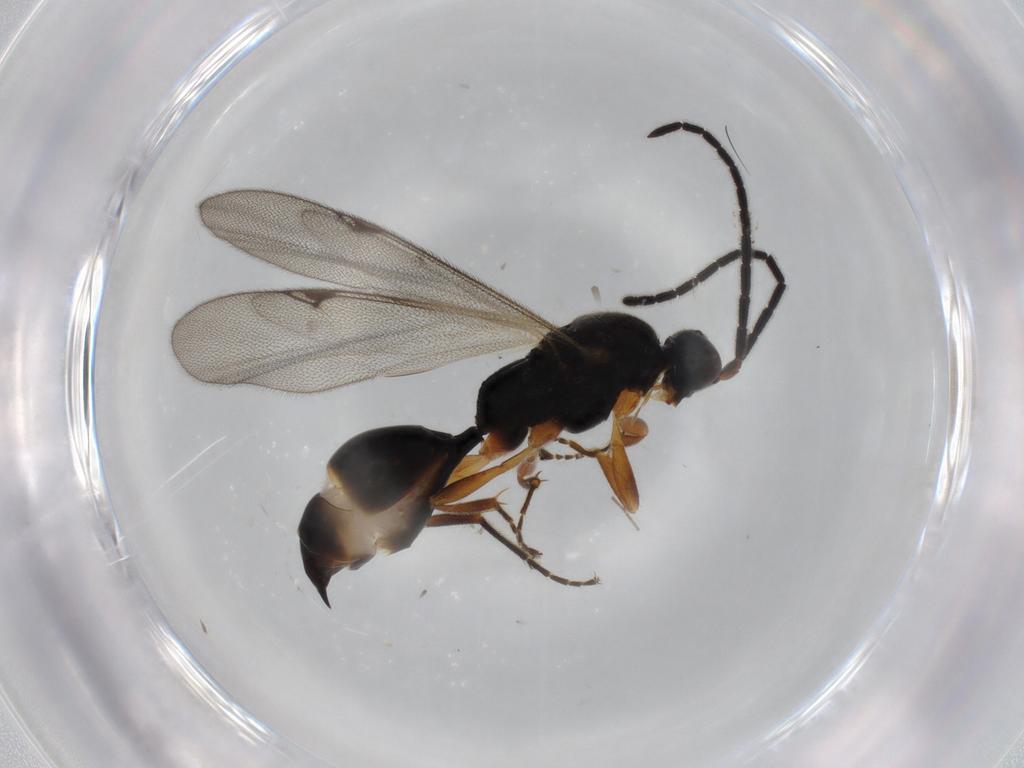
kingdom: Animalia
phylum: Arthropoda
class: Insecta
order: Hymenoptera
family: Proctotrupidae
